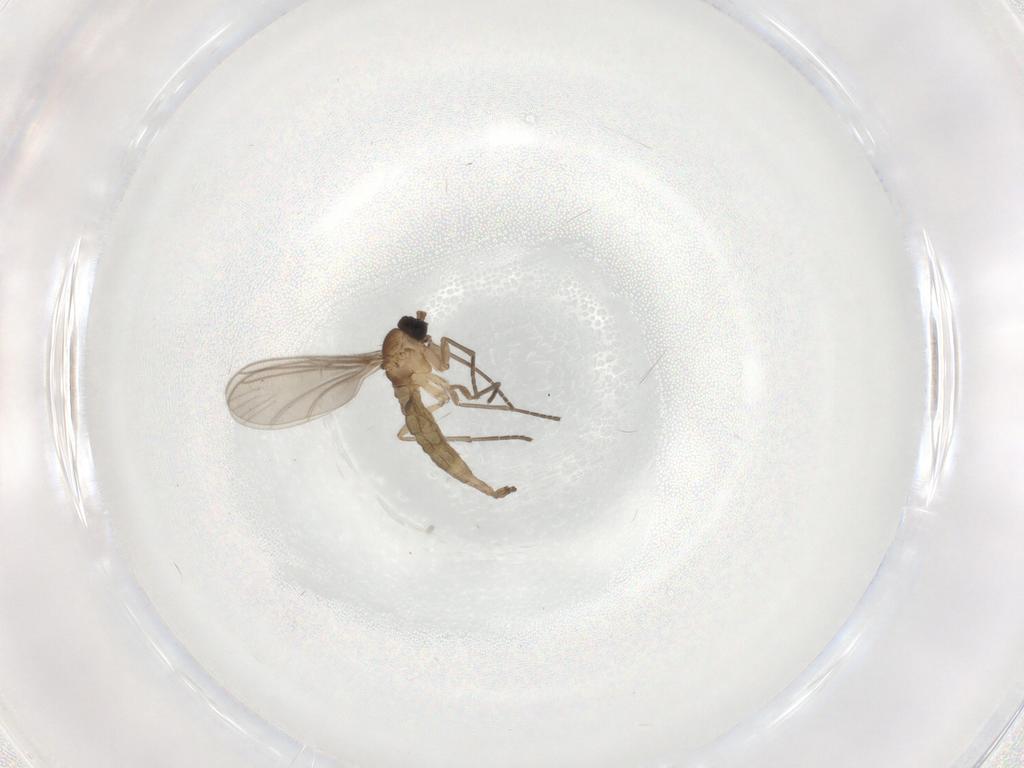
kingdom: Animalia
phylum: Arthropoda
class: Insecta
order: Diptera
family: Sciaridae
